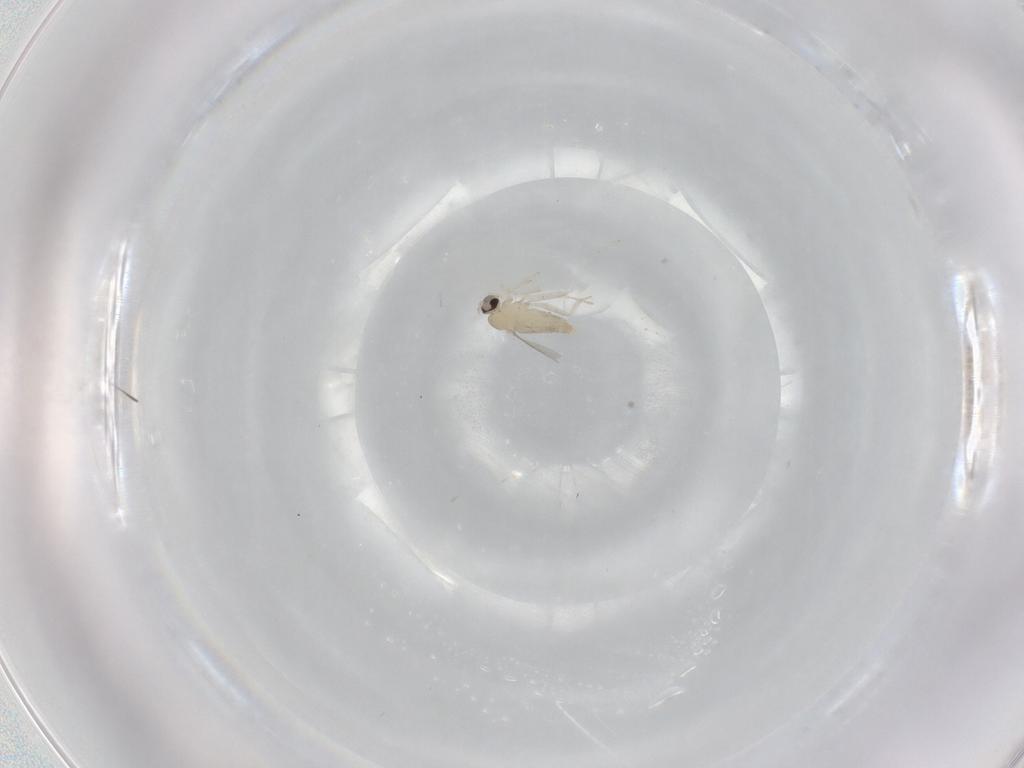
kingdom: Animalia
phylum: Arthropoda
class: Insecta
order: Diptera
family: Cecidomyiidae
